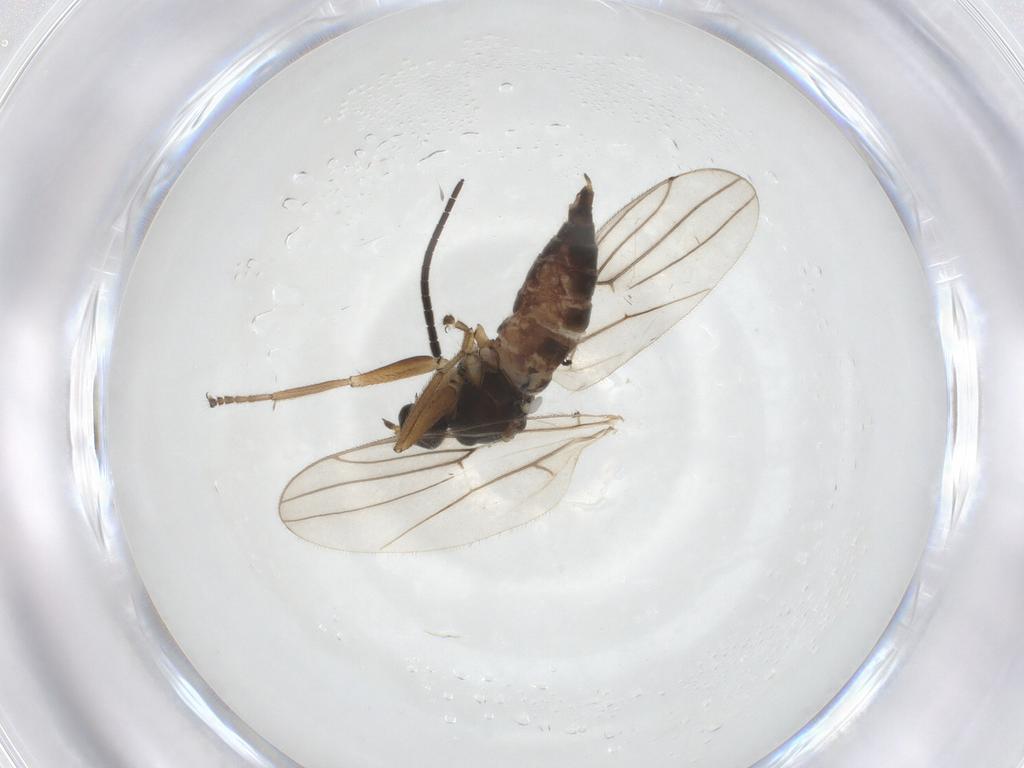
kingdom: Animalia
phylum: Arthropoda
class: Insecta
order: Diptera
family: Hybotidae
